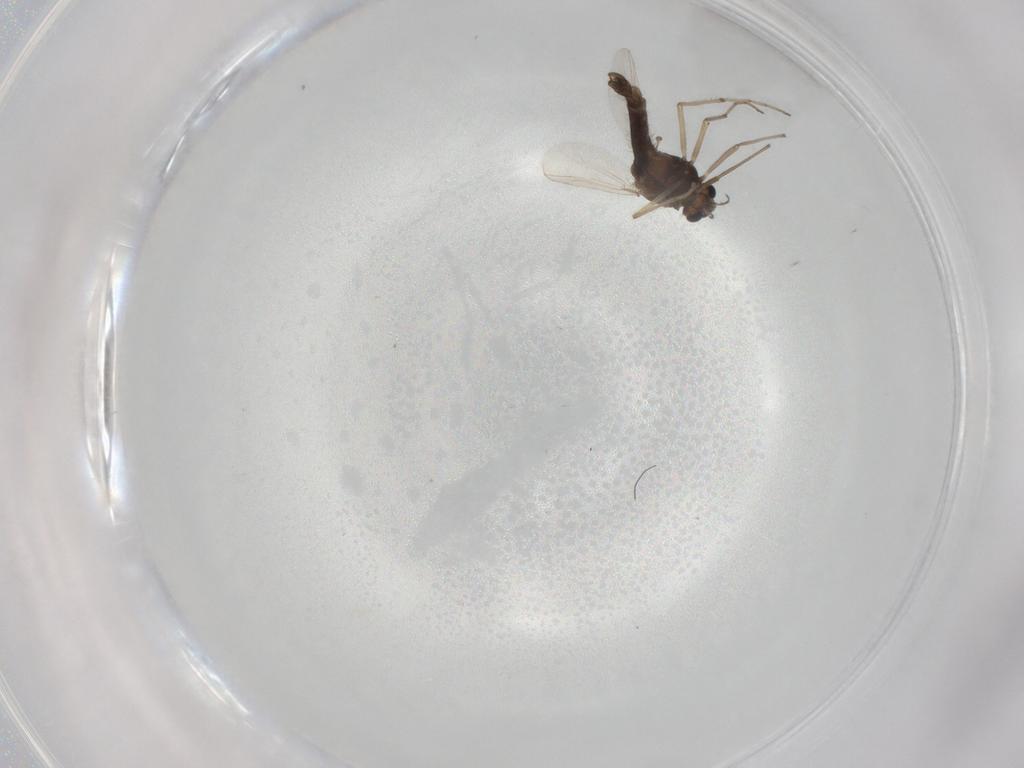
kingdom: Animalia
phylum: Arthropoda
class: Insecta
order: Diptera
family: Chironomidae
